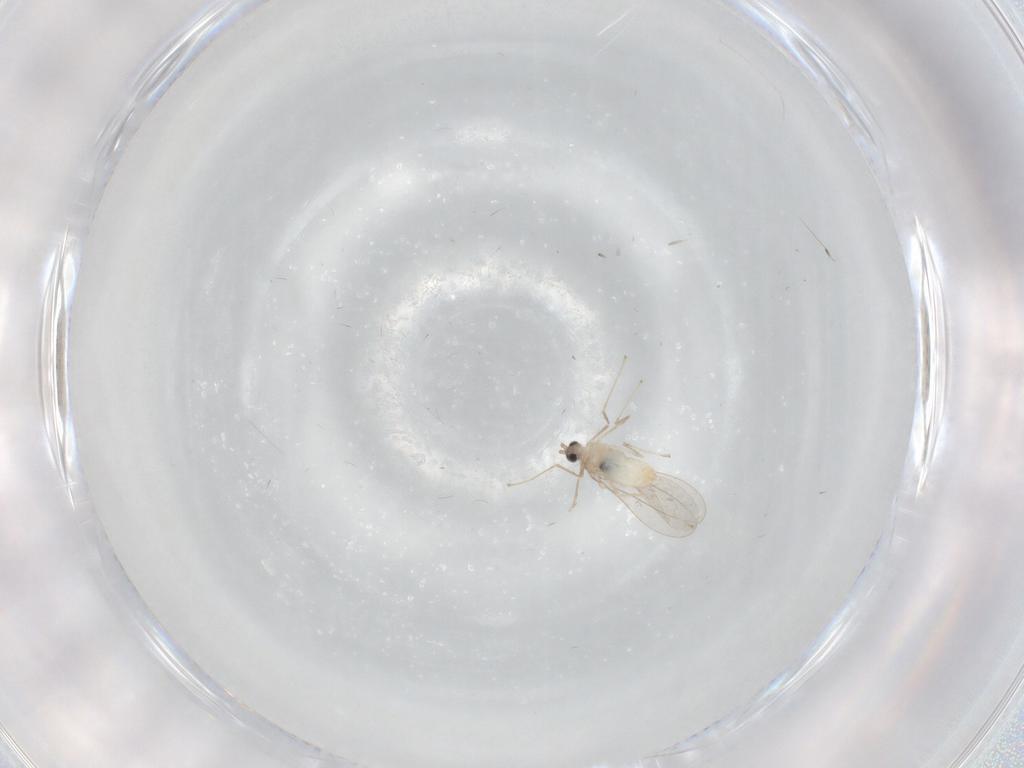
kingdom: Animalia
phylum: Arthropoda
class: Insecta
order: Diptera
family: Cecidomyiidae
